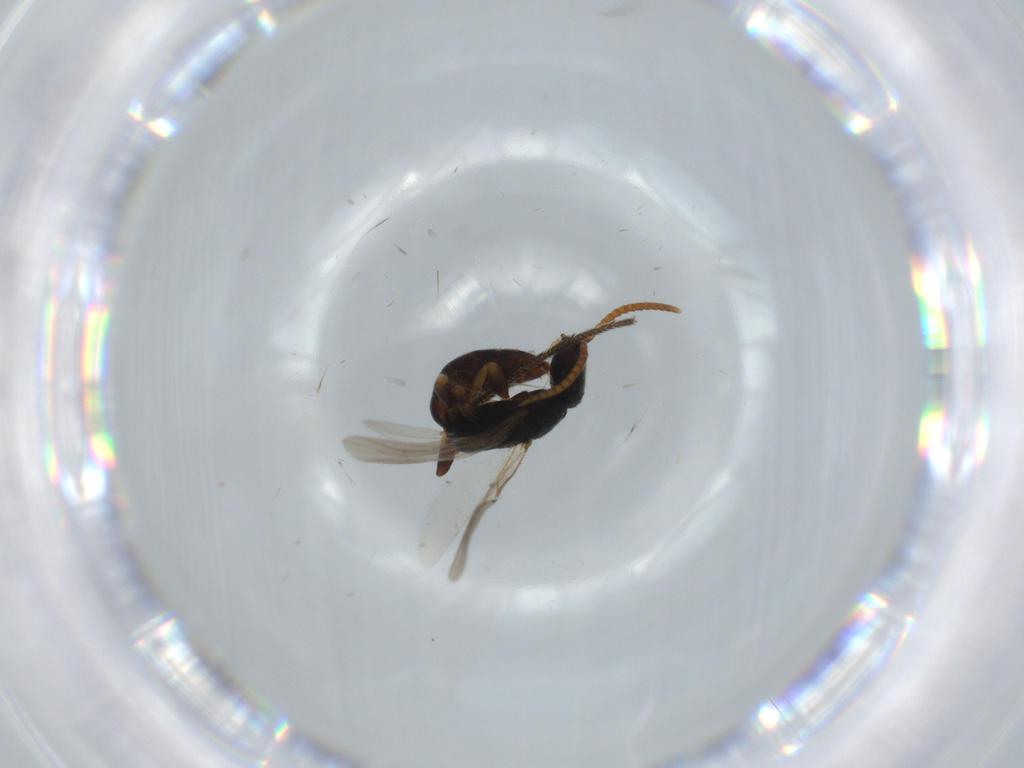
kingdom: Animalia
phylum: Arthropoda
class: Insecta
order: Hymenoptera
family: Bethylidae
